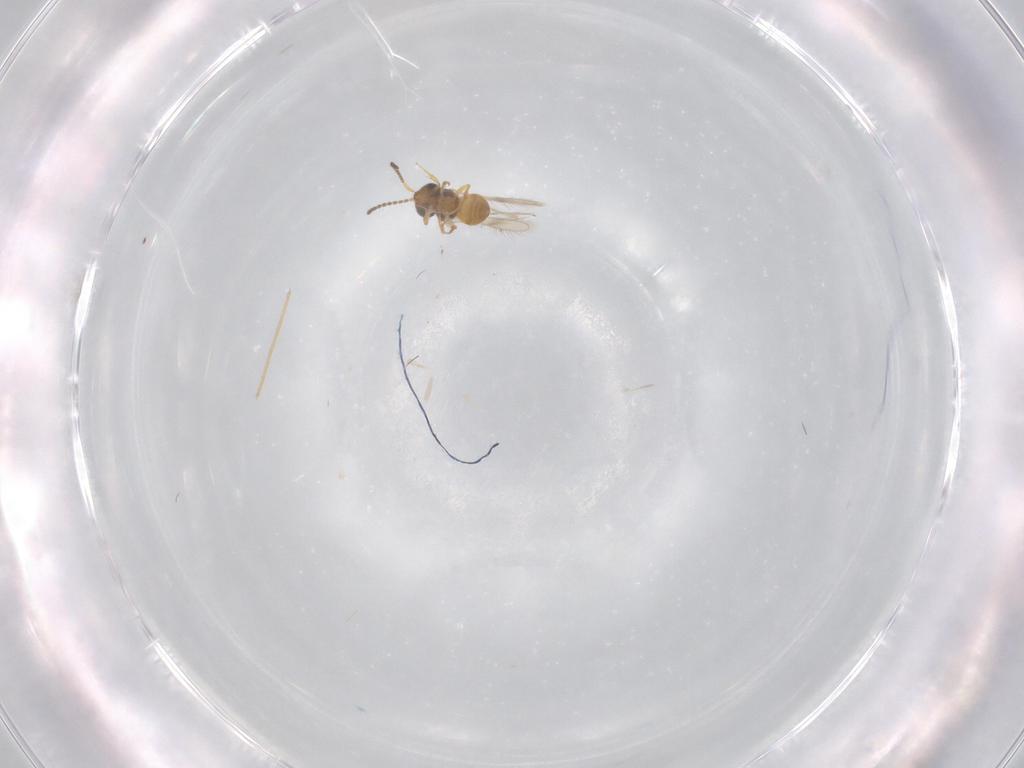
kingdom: Animalia
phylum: Arthropoda
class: Insecta
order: Hymenoptera
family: Scelionidae
